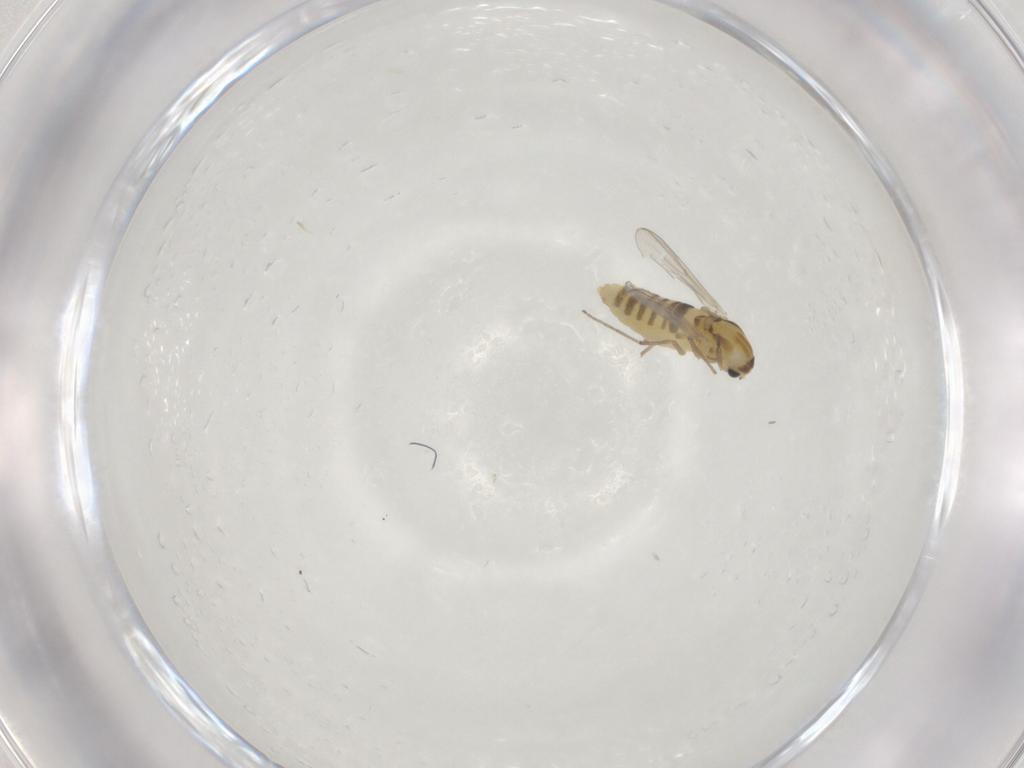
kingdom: Animalia
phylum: Arthropoda
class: Insecta
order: Diptera
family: Chironomidae
